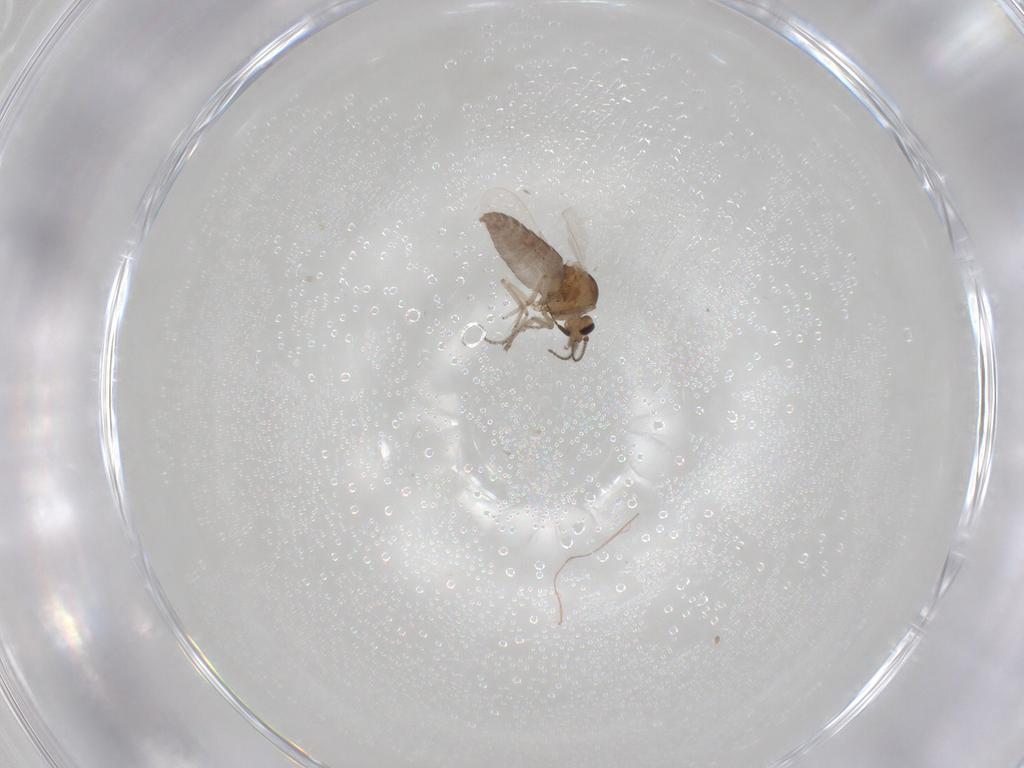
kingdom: Animalia
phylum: Arthropoda
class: Insecta
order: Diptera
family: Ceratopogonidae
